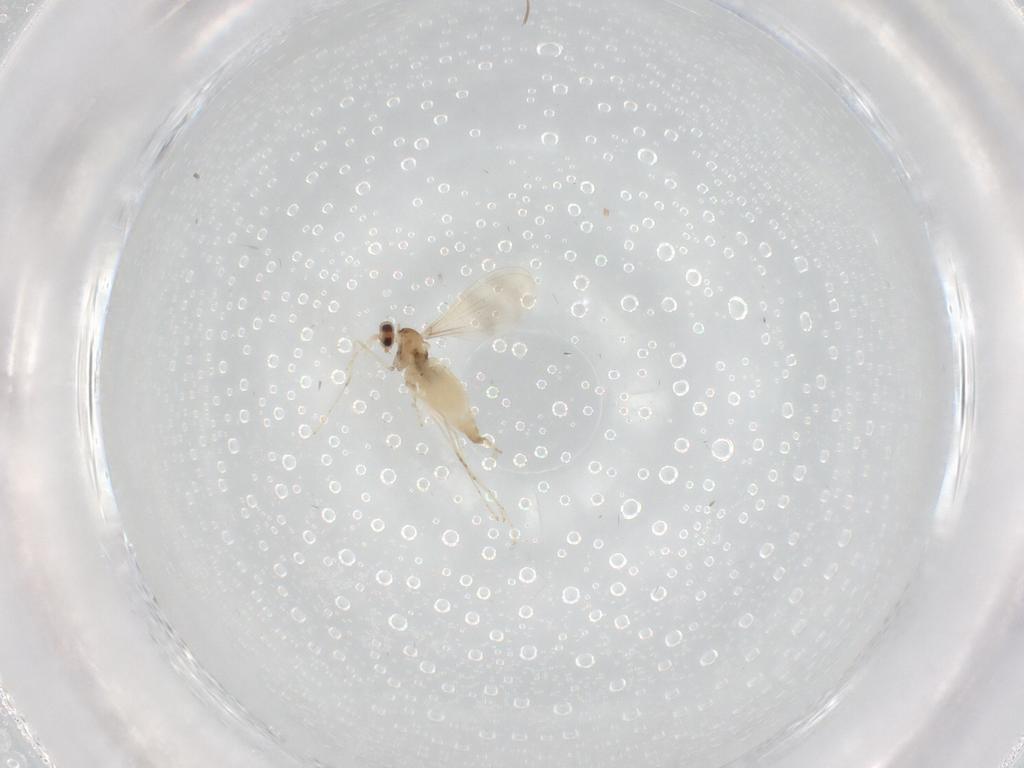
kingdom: Animalia
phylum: Arthropoda
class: Insecta
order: Diptera
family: Cecidomyiidae
